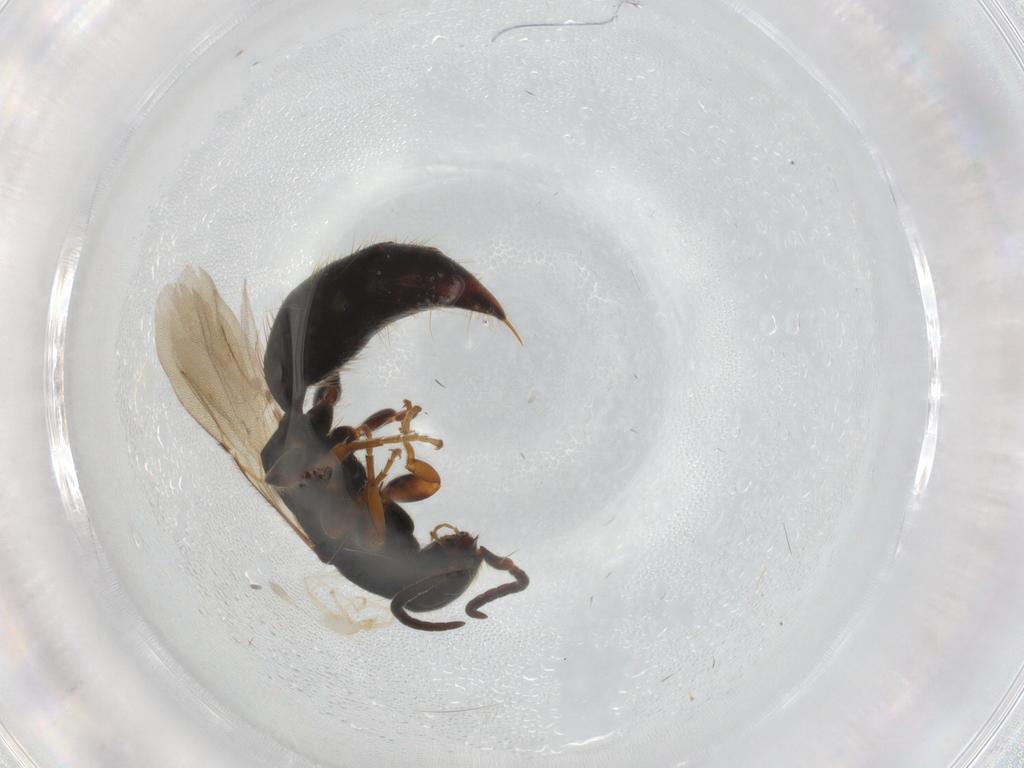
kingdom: Animalia
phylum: Arthropoda
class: Insecta
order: Hymenoptera
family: Bethylidae
